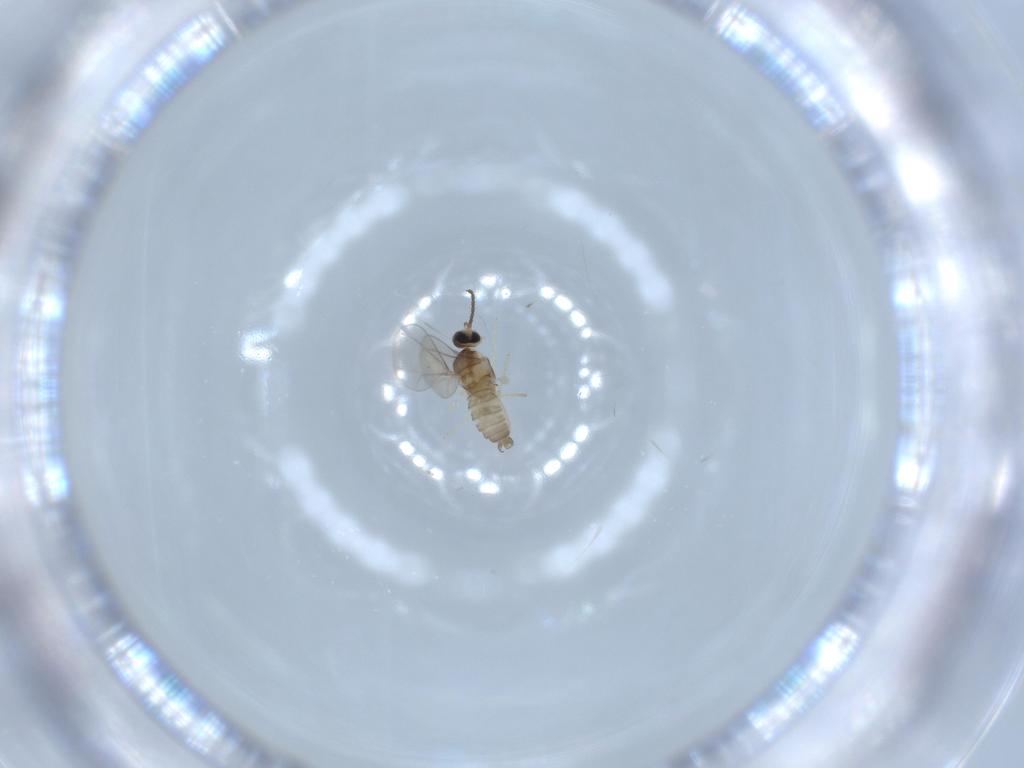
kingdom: Animalia
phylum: Arthropoda
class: Insecta
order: Diptera
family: Cecidomyiidae
